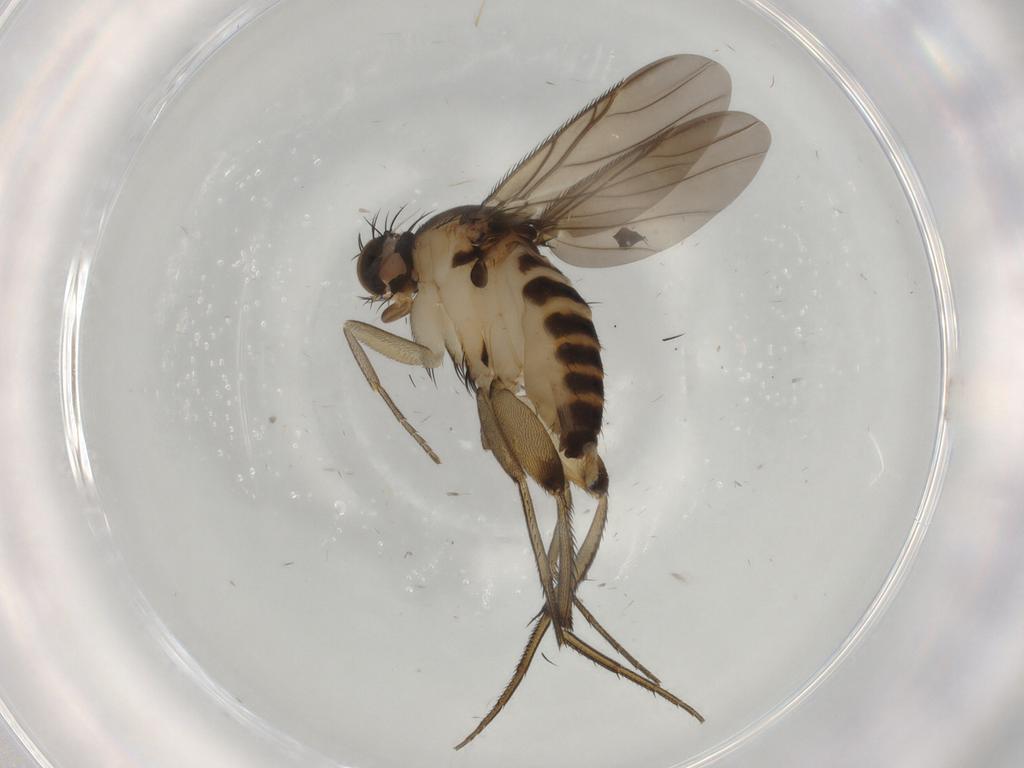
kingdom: Animalia
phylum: Arthropoda
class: Insecta
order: Diptera
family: Phoridae
